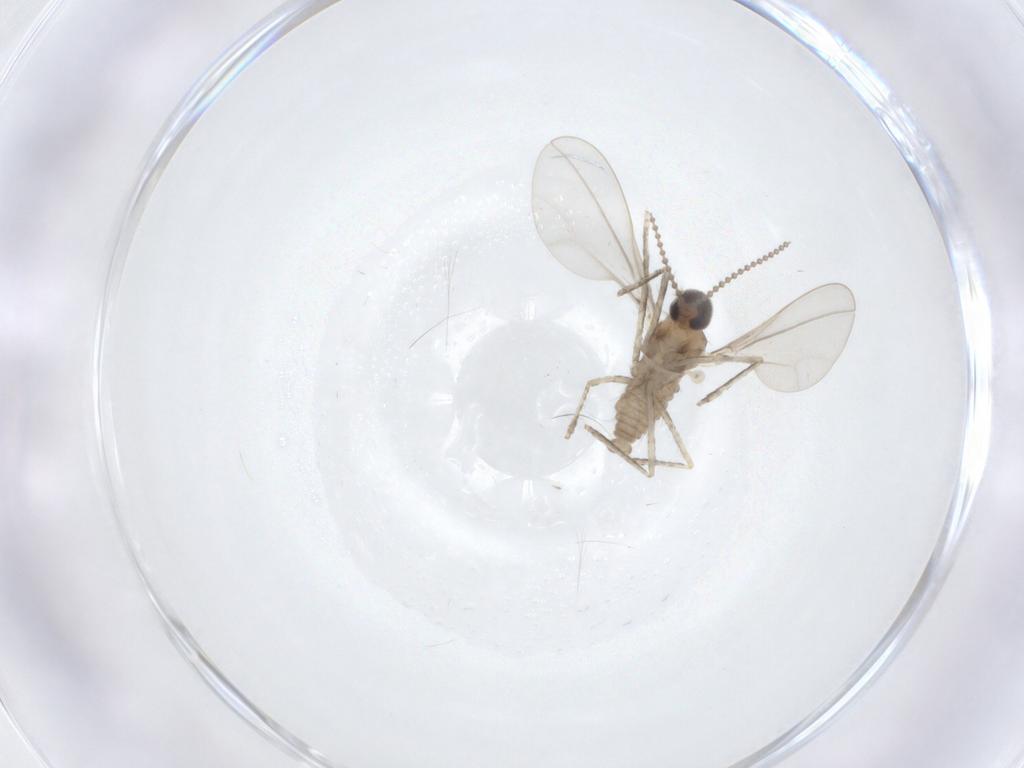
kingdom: Animalia
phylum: Arthropoda
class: Insecta
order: Diptera
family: Cecidomyiidae
